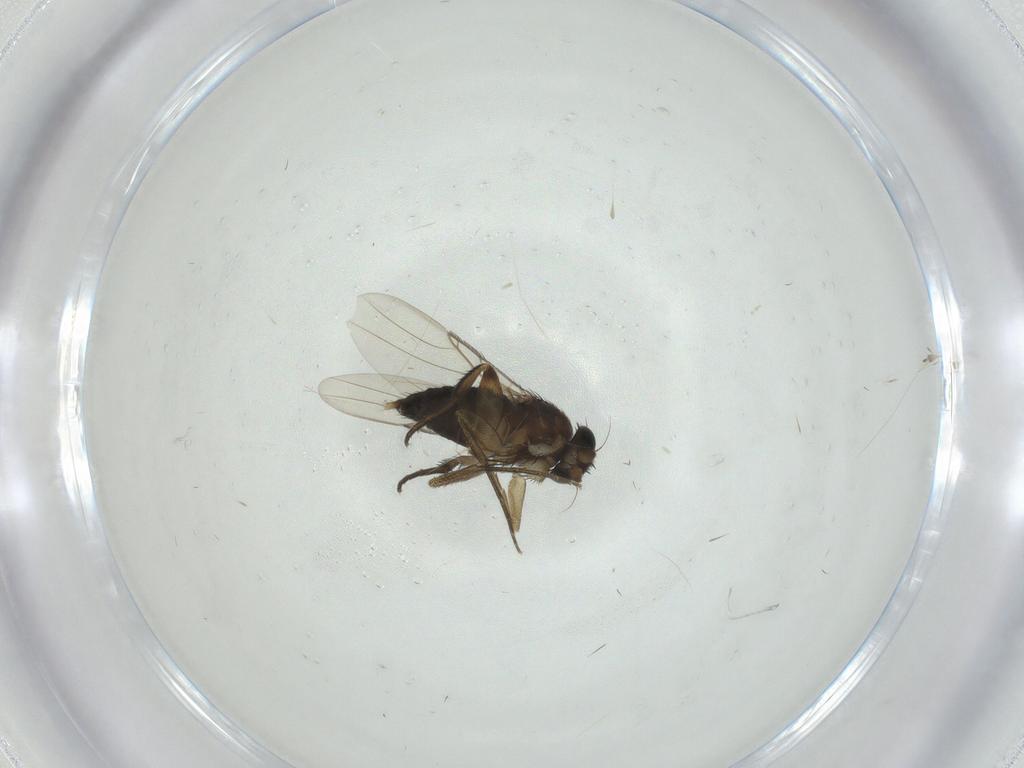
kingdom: Animalia
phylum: Arthropoda
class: Insecta
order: Diptera
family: Phoridae
